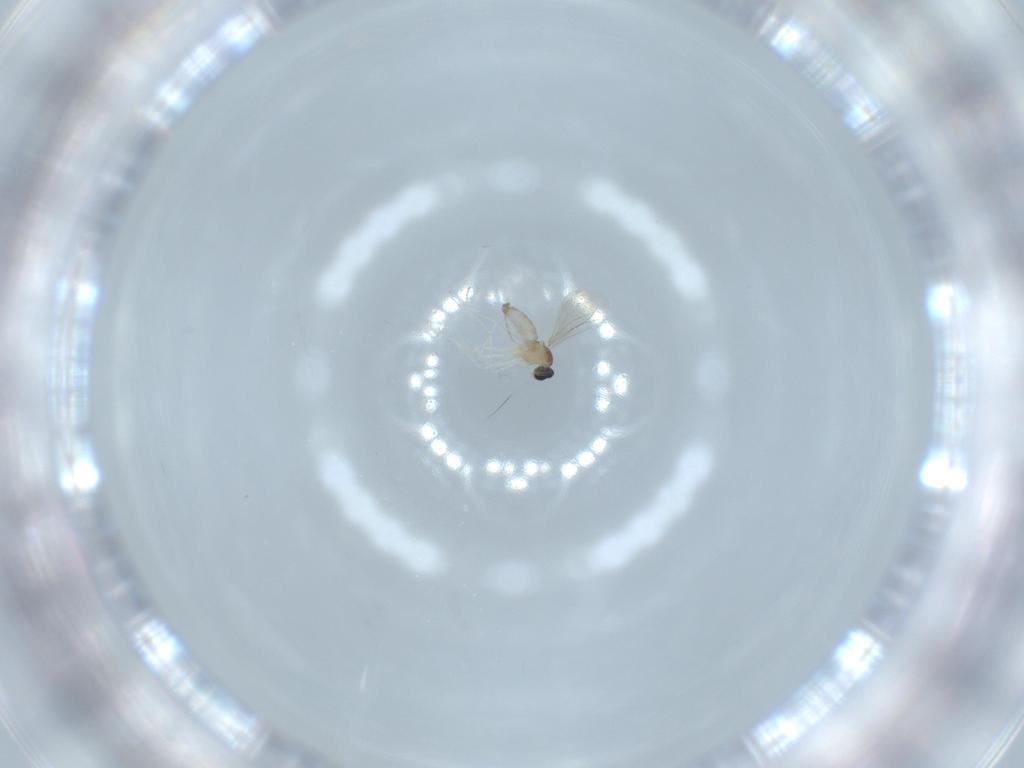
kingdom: Animalia
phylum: Arthropoda
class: Insecta
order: Diptera
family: Cecidomyiidae
